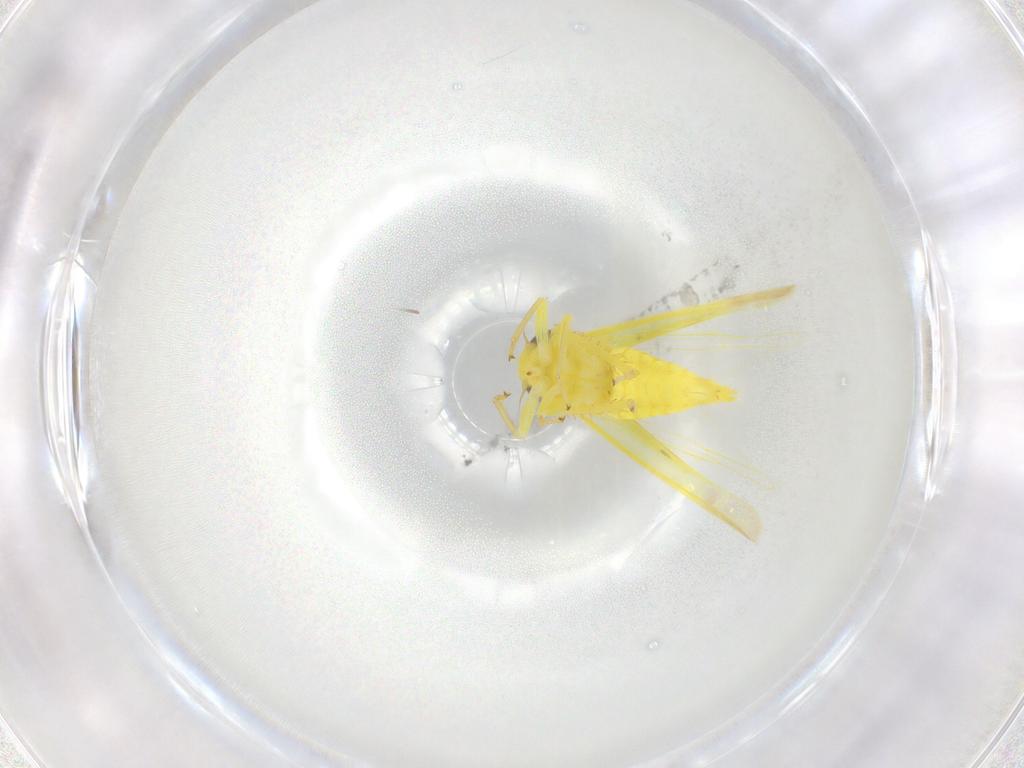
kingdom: Animalia
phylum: Arthropoda
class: Insecta
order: Hemiptera
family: Cicadellidae
